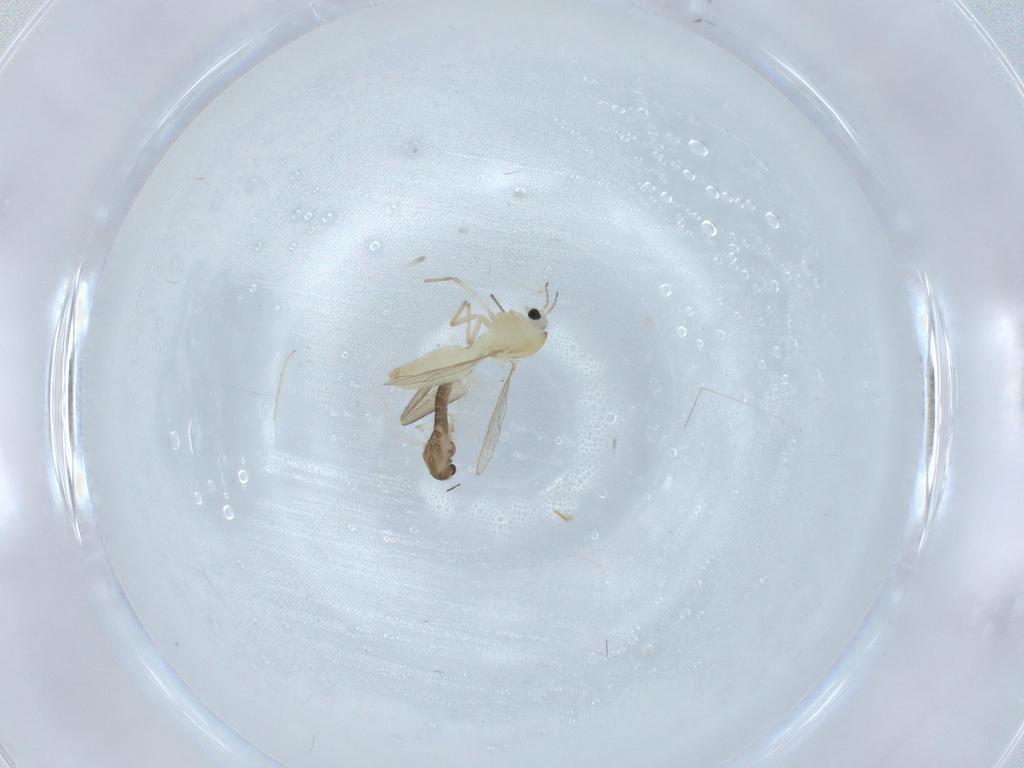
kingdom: Animalia
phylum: Arthropoda
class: Insecta
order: Diptera
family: Chironomidae
